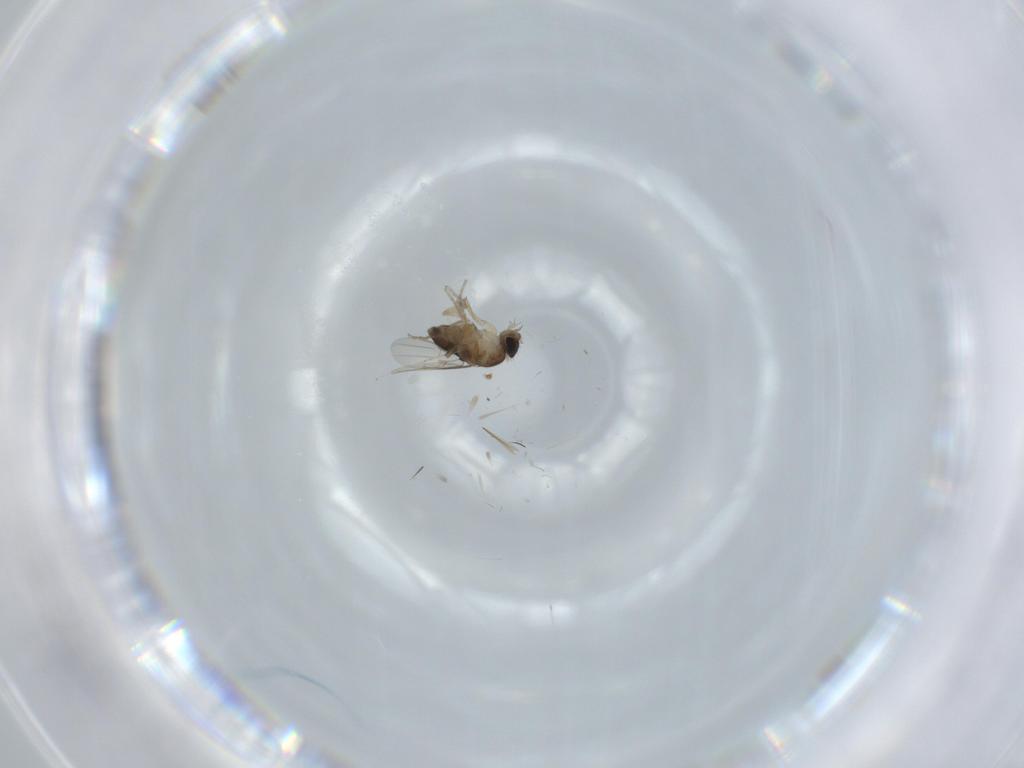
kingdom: Animalia
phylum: Arthropoda
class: Insecta
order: Diptera
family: Phoridae
